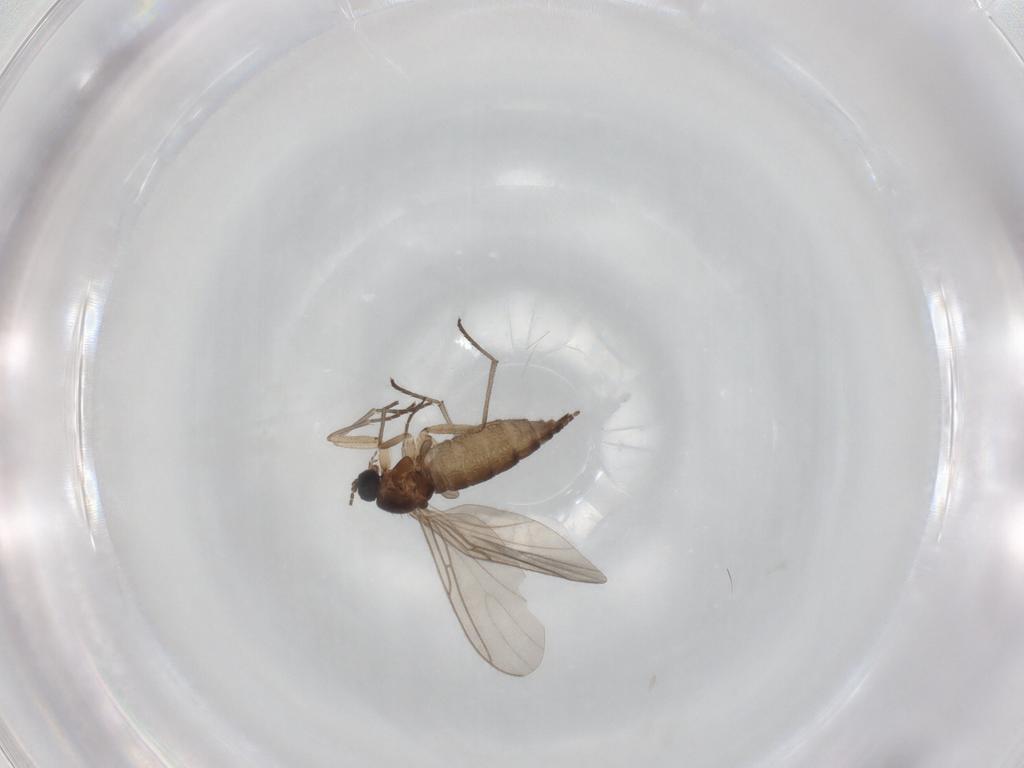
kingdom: Animalia
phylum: Arthropoda
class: Insecta
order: Diptera
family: Sciaridae
